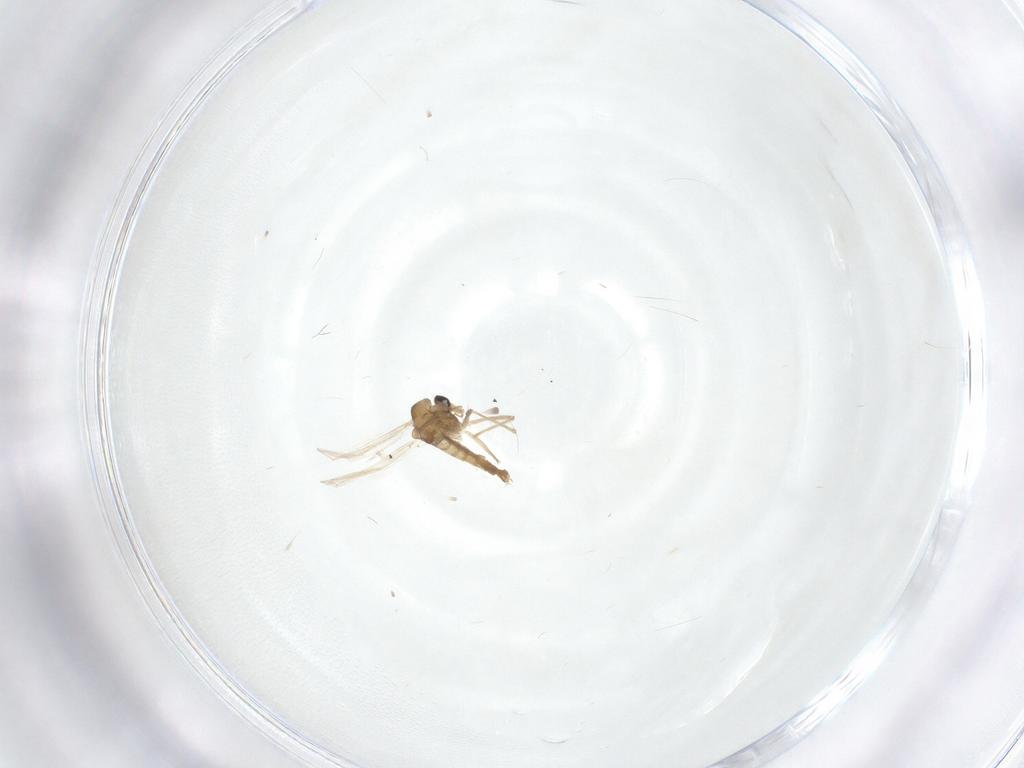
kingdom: Animalia
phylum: Arthropoda
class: Insecta
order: Diptera
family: Chironomidae
